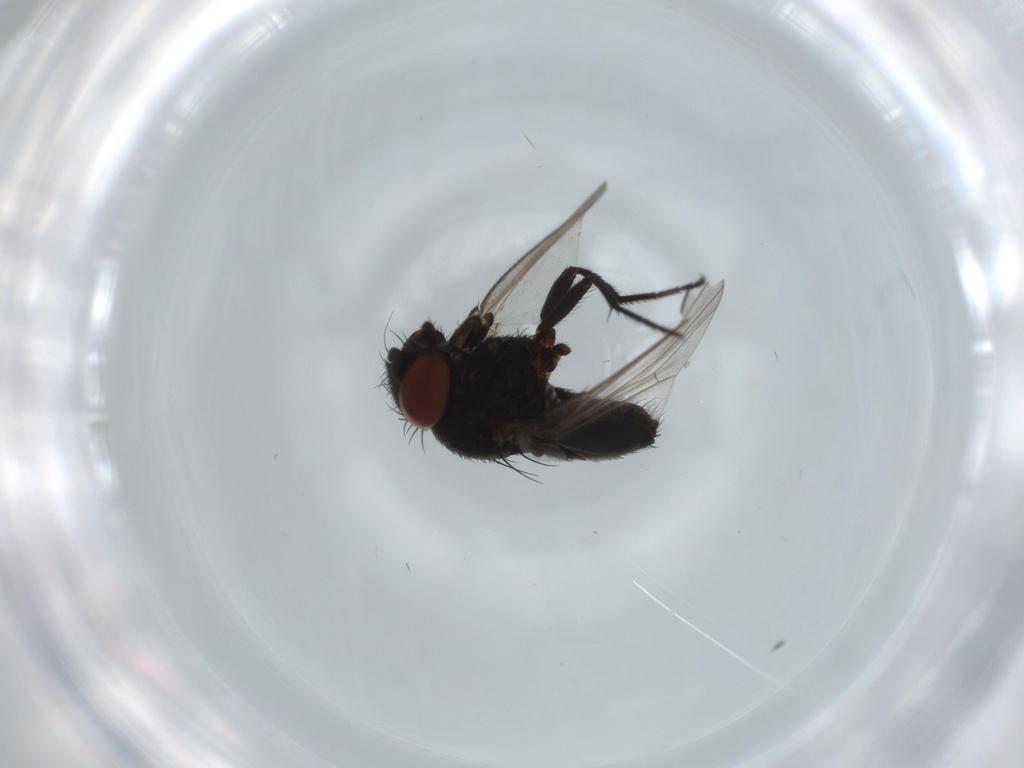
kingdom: Animalia
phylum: Arthropoda
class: Insecta
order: Diptera
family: Milichiidae
